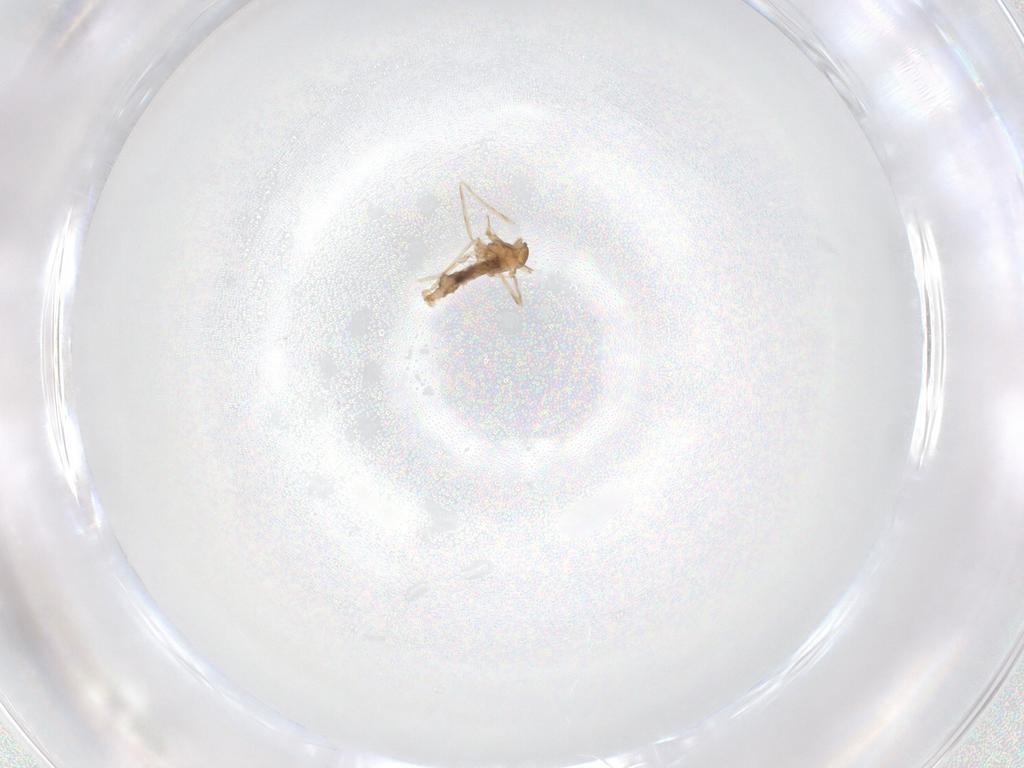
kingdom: Animalia
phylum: Arthropoda
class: Insecta
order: Diptera
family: Cecidomyiidae
